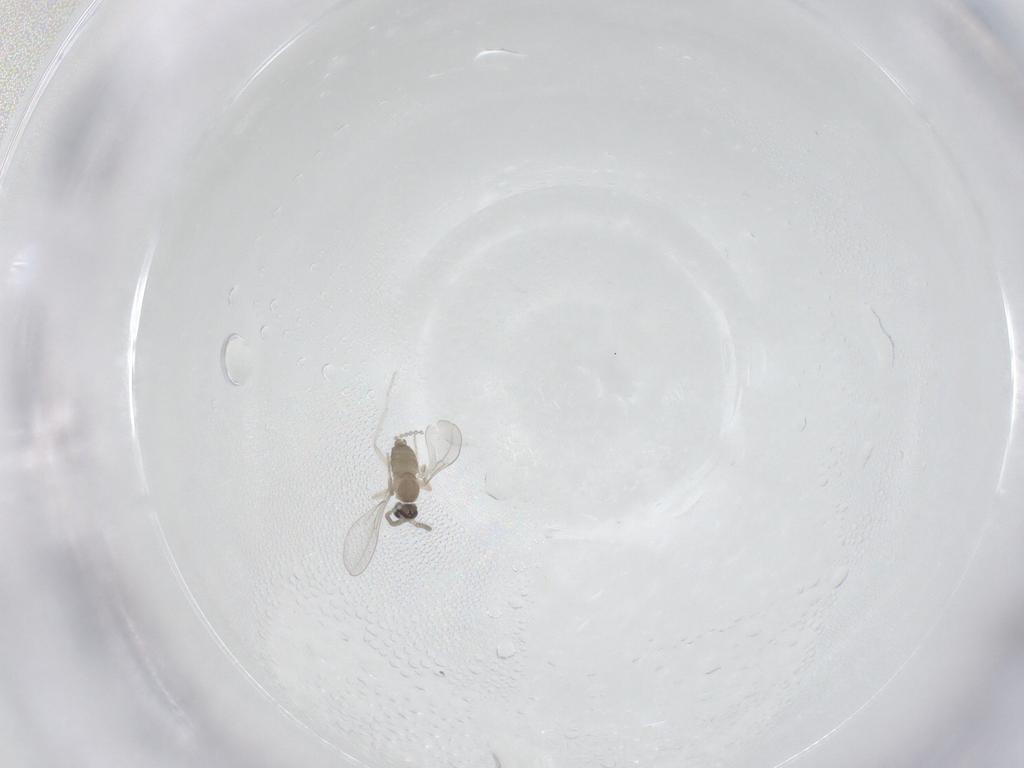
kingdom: Animalia
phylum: Arthropoda
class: Insecta
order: Diptera
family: Cecidomyiidae
